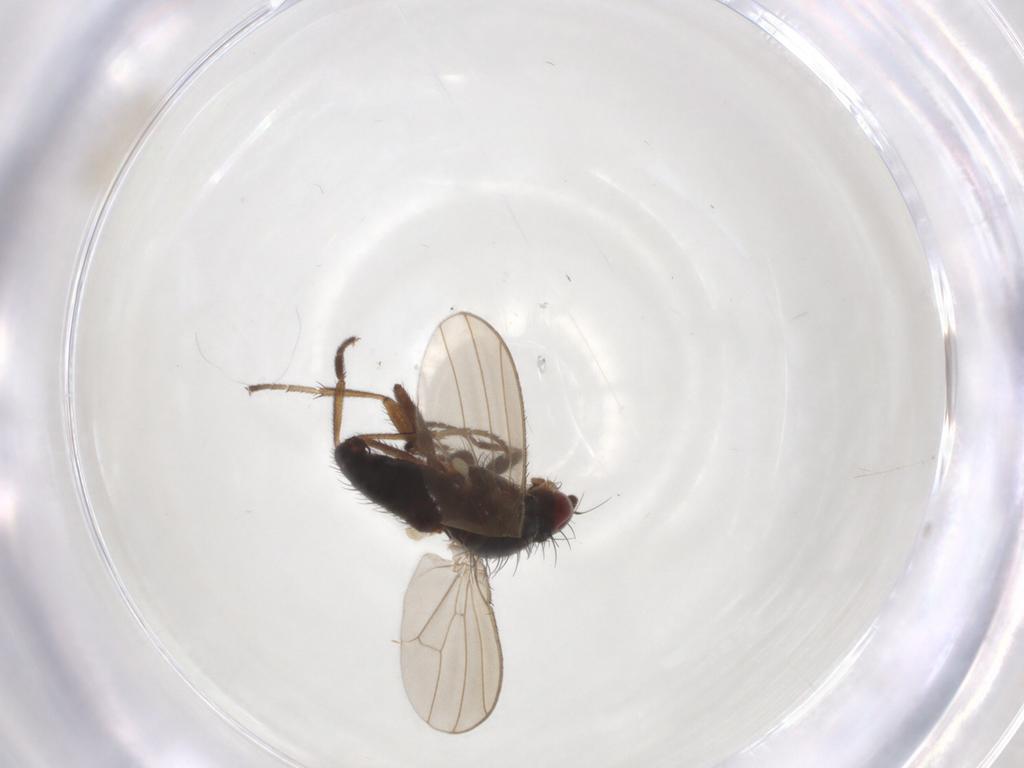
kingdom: Animalia
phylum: Arthropoda
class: Insecta
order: Diptera
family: Heleomyzidae
